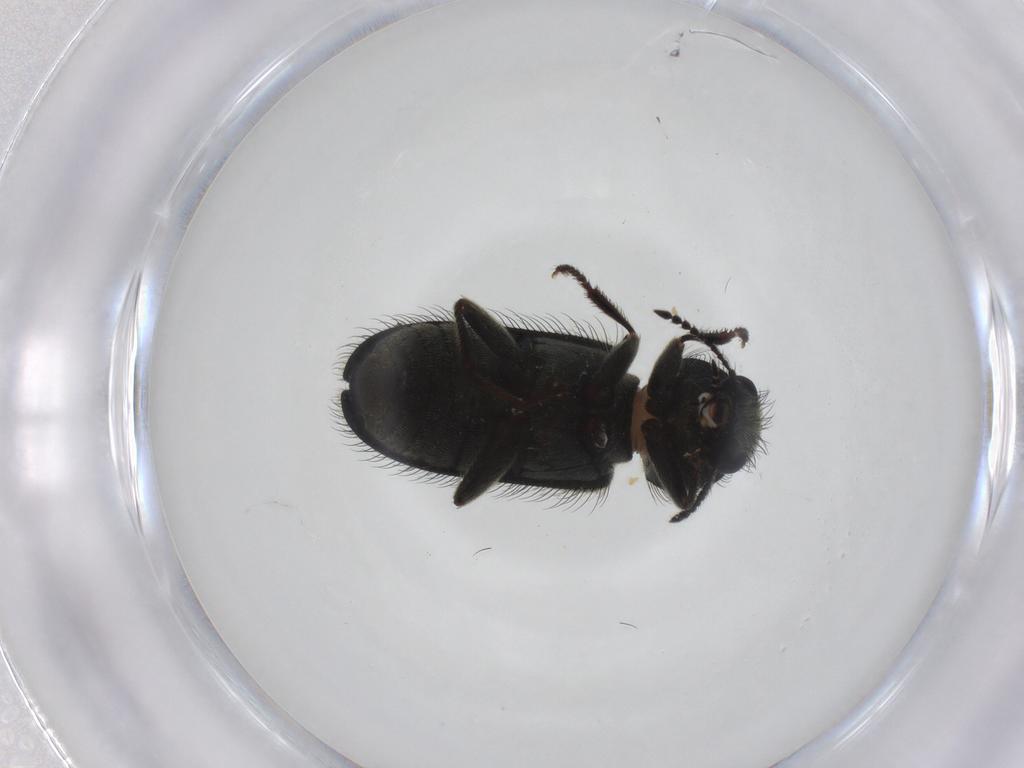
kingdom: Animalia
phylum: Arthropoda
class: Insecta
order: Coleoptera
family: Melyridae
